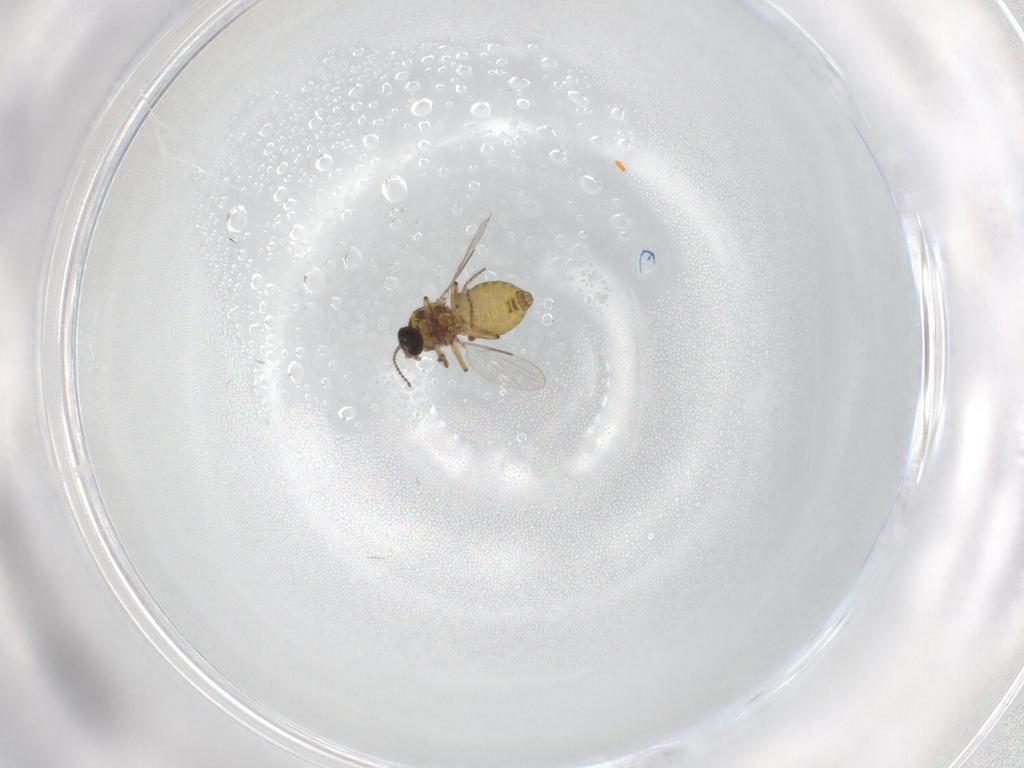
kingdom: Animalia
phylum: Arthropoda
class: Insecta
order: Diptera
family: Ceratopogonidae
